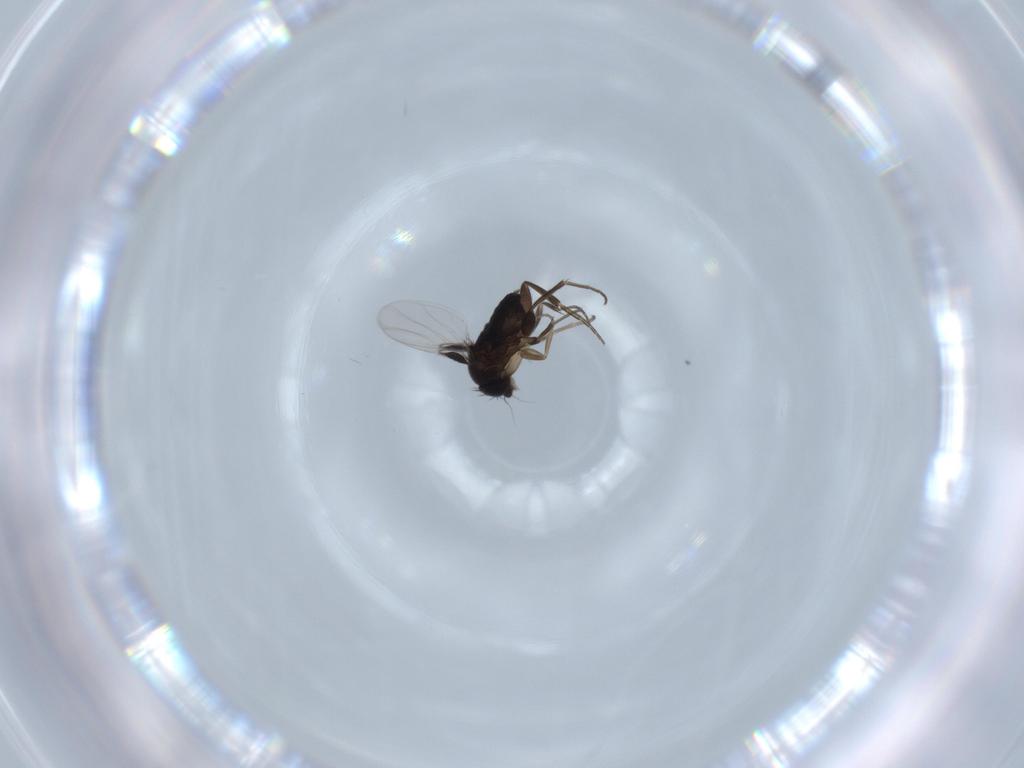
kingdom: Animalia
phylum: Arthropoda
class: Insecta
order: Diptera
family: Phoridae
